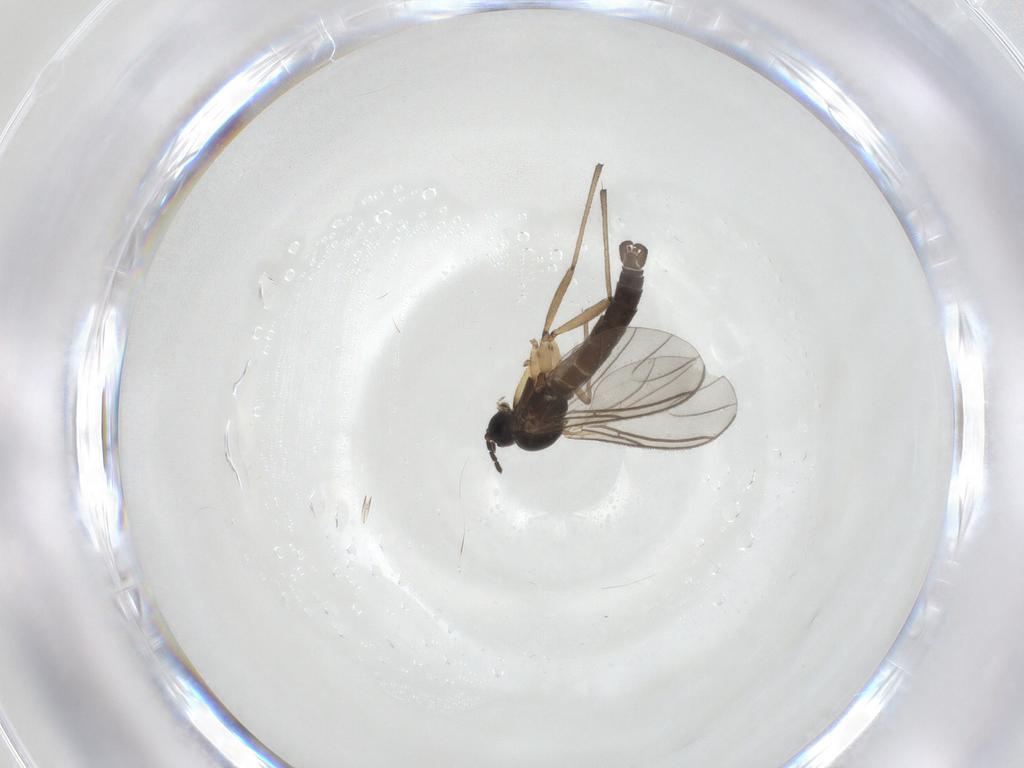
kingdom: Animalia
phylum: Arthropoda
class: Insecta
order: Diptera
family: Sciaridae
